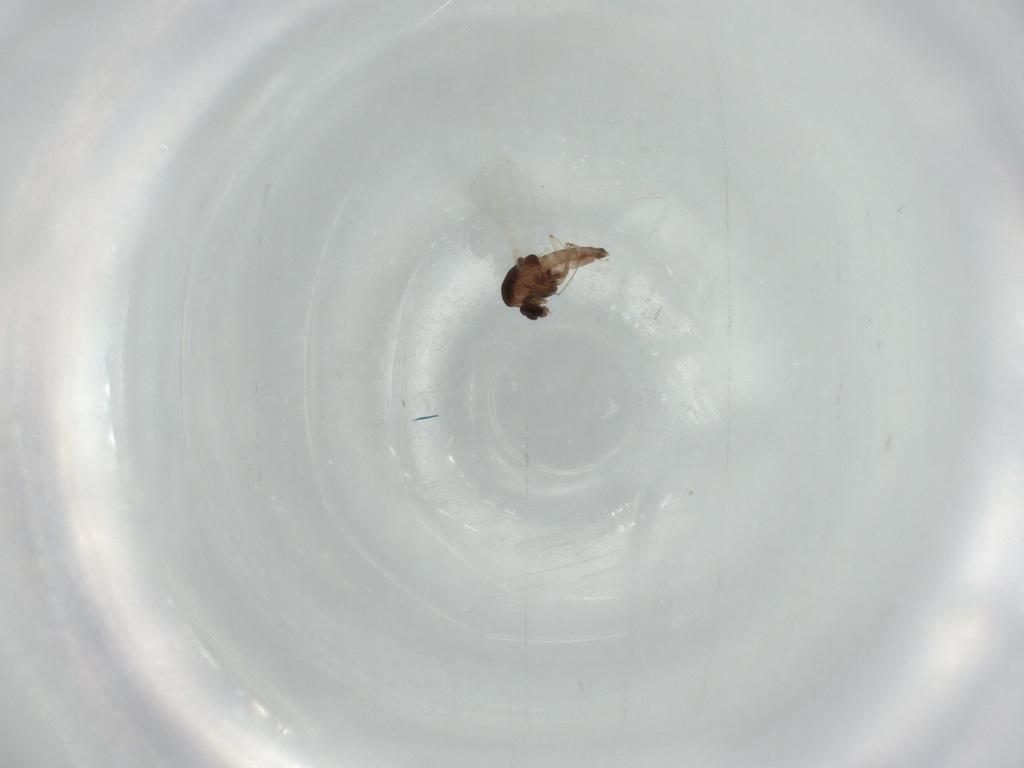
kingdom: Animalia
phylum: Arthropoda
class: Insecta
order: Diptera
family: Chironomidae
